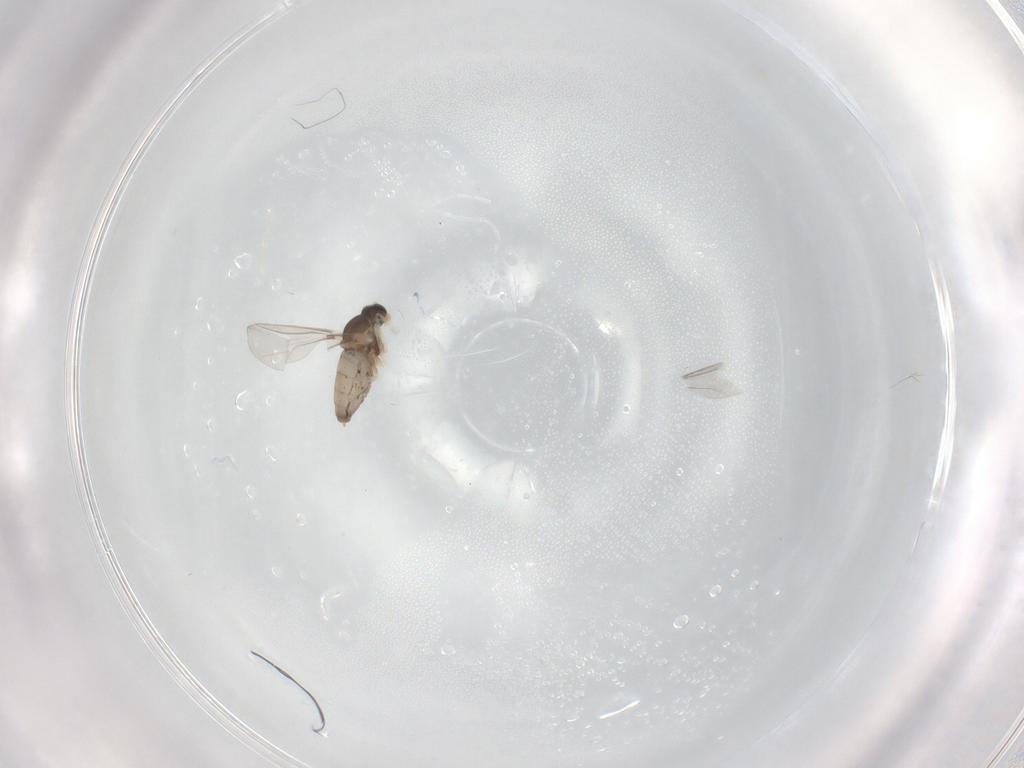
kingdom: Animalia
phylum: Arthropoda
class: Insecta
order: Diptera
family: Cecidomyiidae
